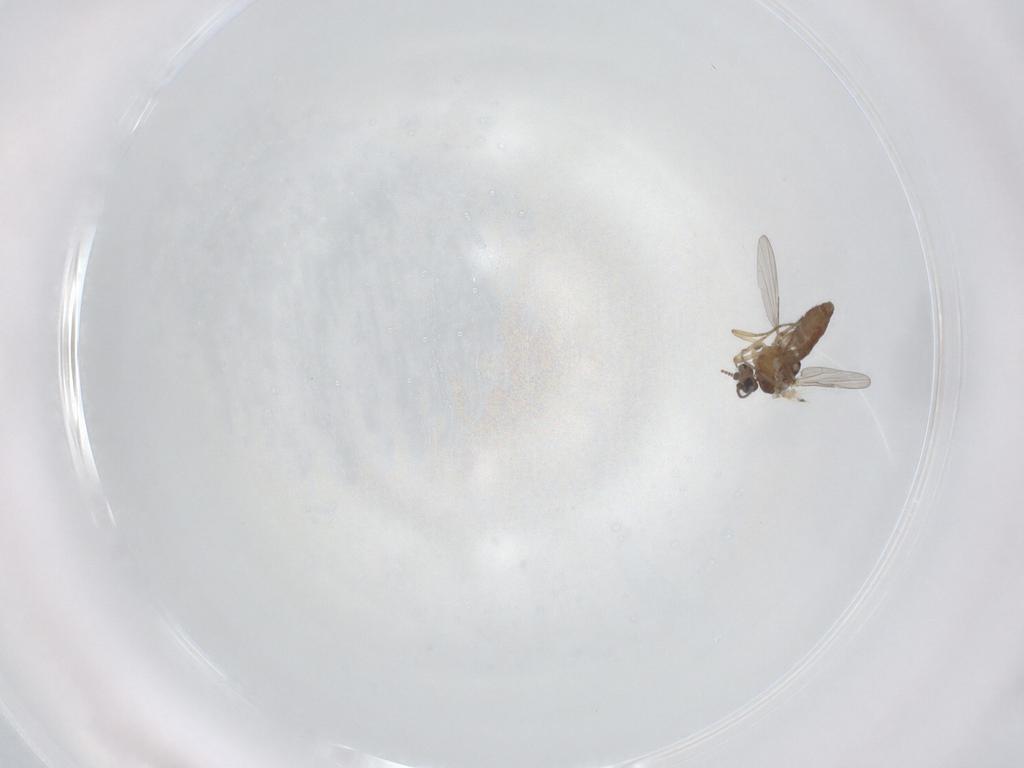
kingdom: Animalia
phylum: Arthropoda
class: Insecta
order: Diptera
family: Ceratopogonidae
